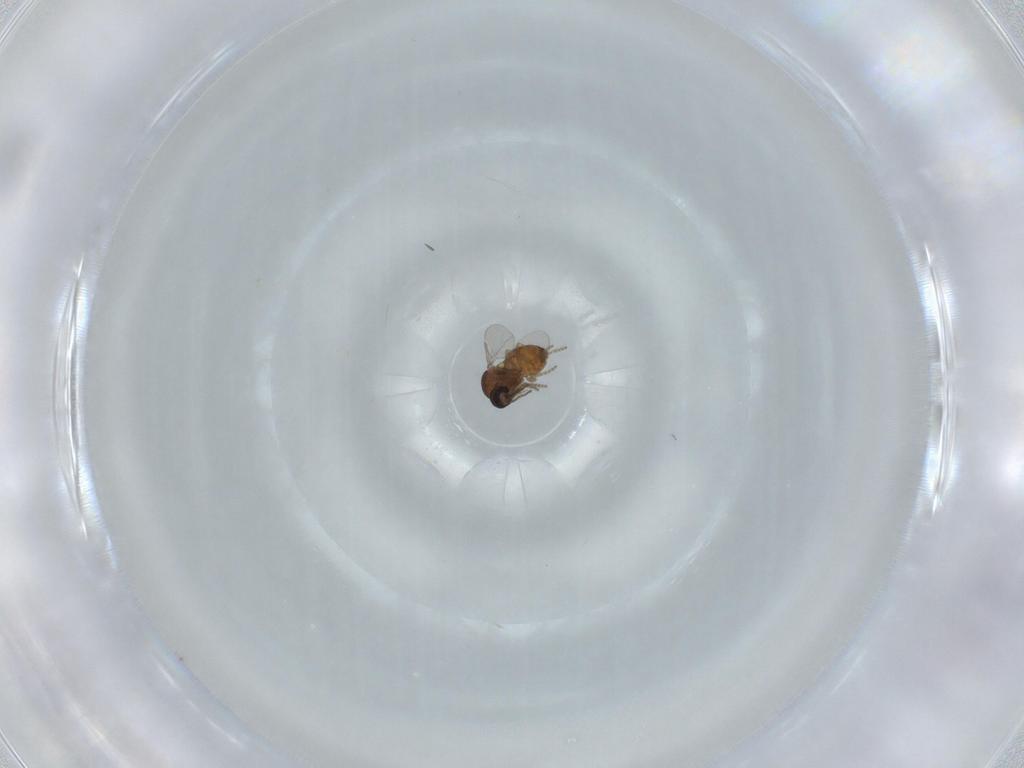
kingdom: Animalia
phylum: Arthropoda
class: Insecta
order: Diptera
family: Ceratopogonidae
